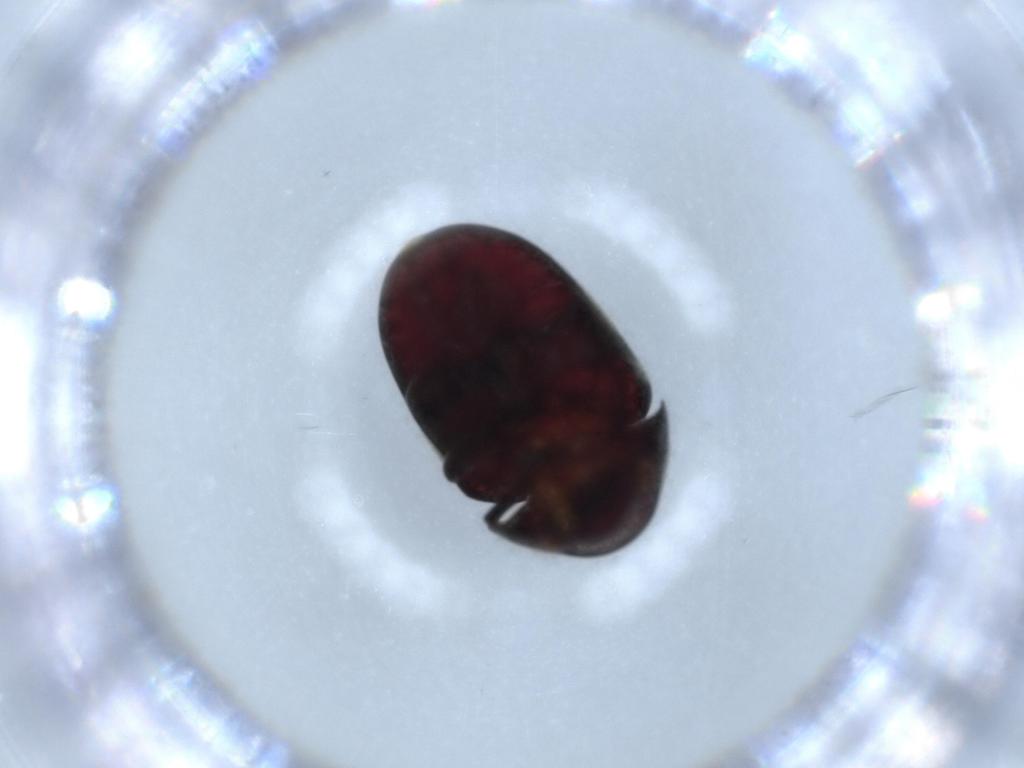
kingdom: Animalia
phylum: Arthropoda
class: Insecta
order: Coleoptera
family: Ptinidae
